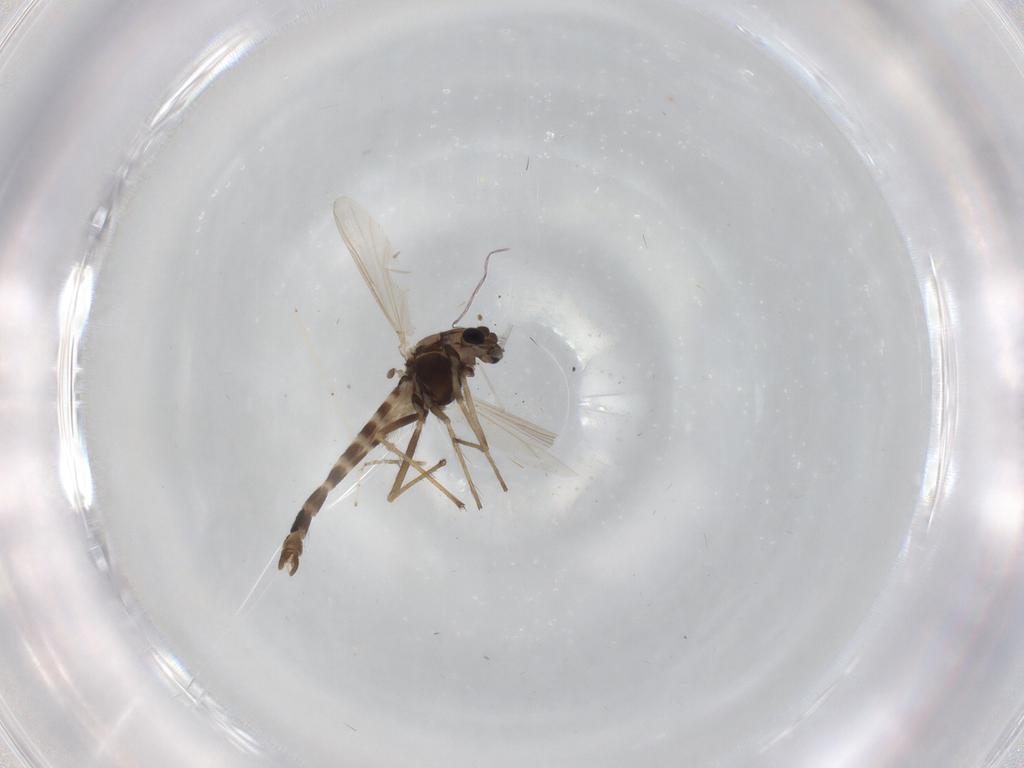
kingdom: Animalia
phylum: Arthropoda
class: Insecta
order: Diptera
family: Chironomidae
